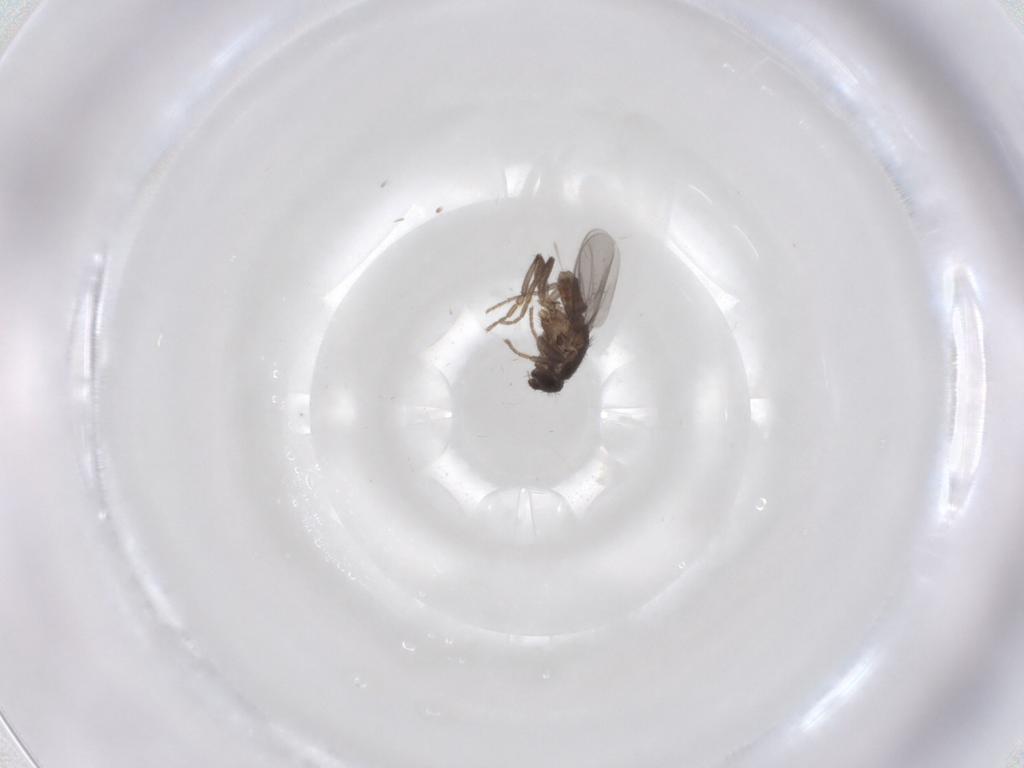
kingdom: Animalia
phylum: Arthropoda
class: Insecta
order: Diptera
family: Sphaeroceridae
